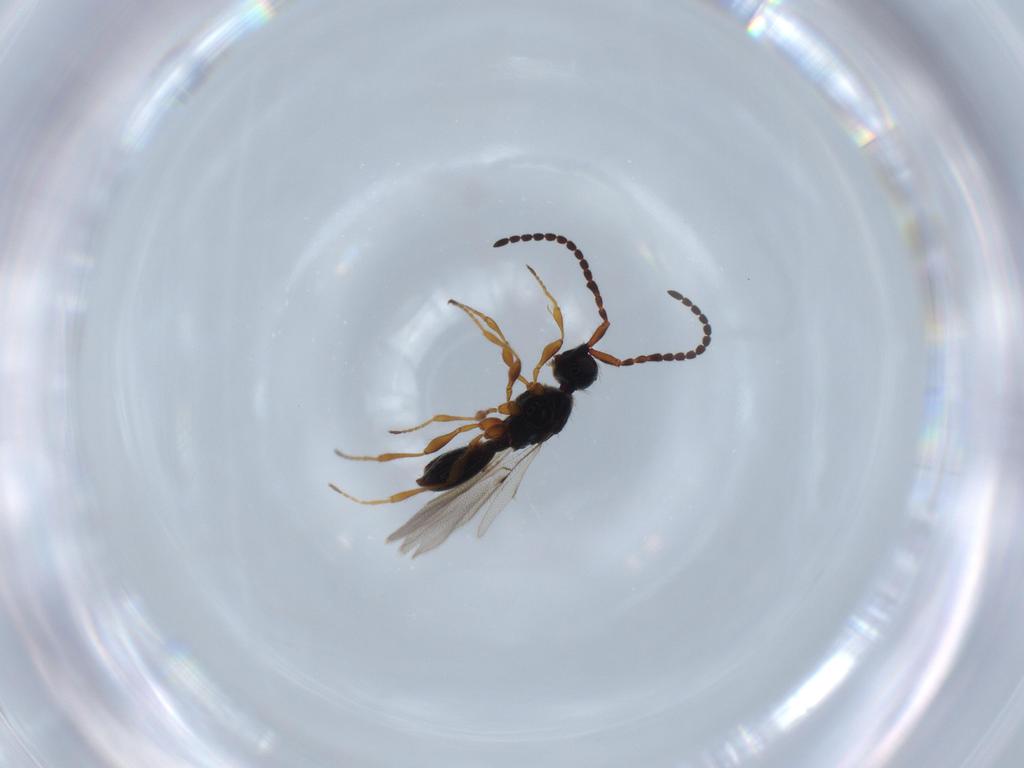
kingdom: Animalia
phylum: Arthropoda
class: Insecta
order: Hymenoptera
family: Diapriidae
